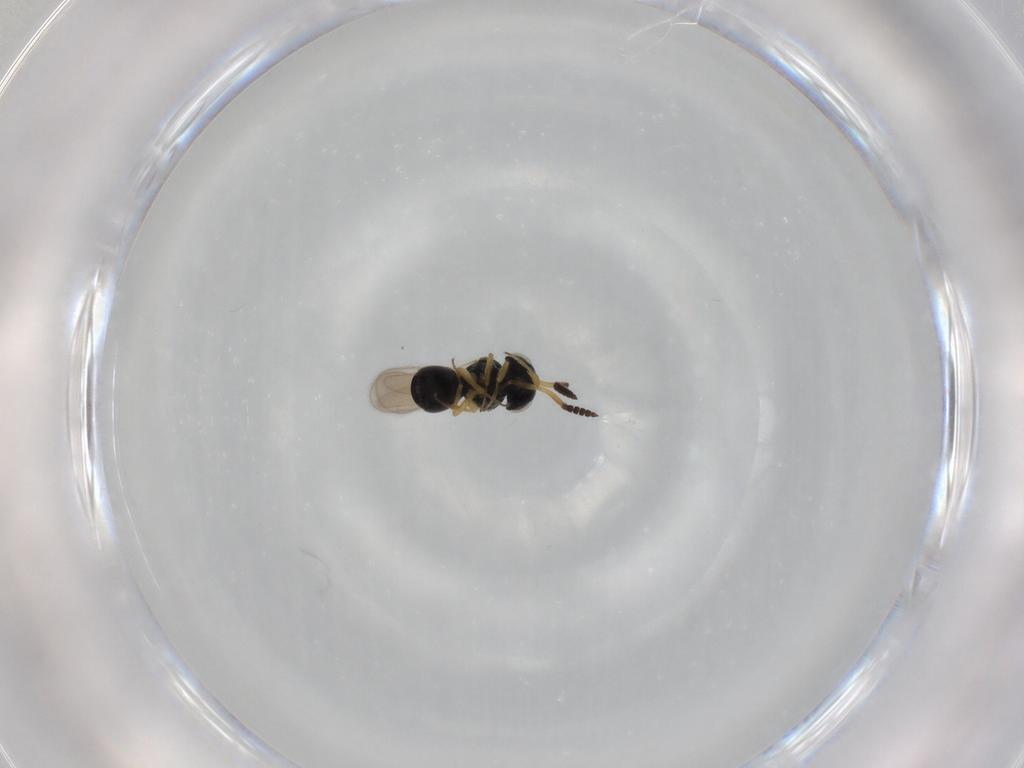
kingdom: Animalia
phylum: Arthropoda
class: Insecta
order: Hymenoptera
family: Scelionidae
